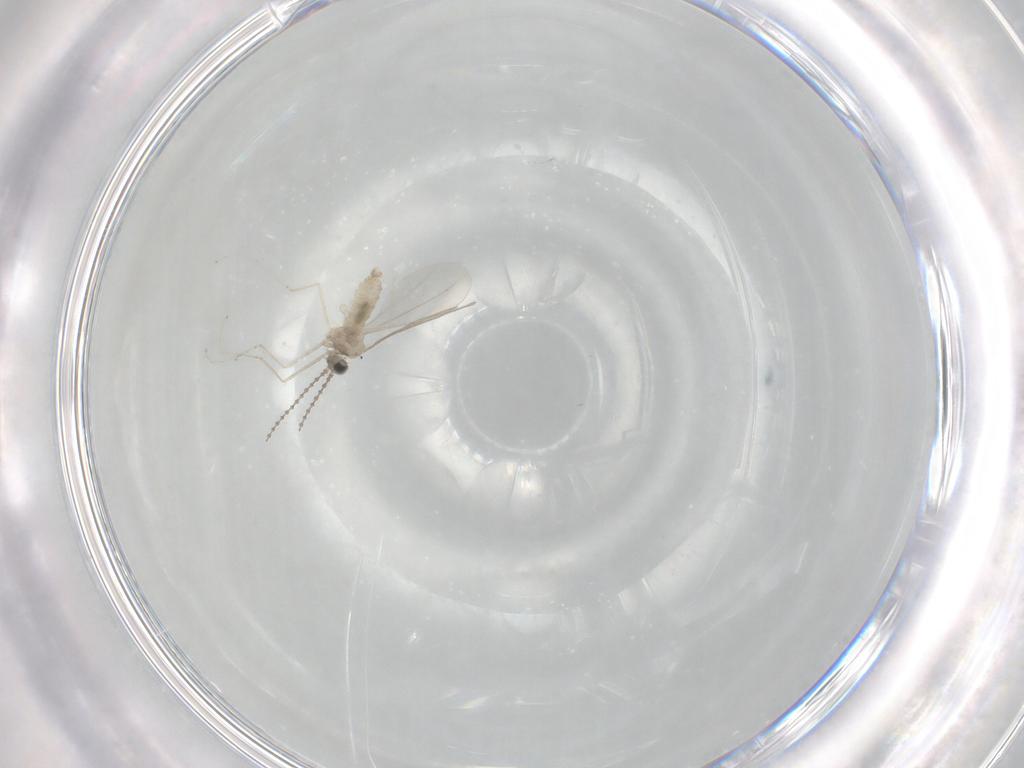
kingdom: Animalia
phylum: Arthropoda
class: Insecta
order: Diptera
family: Cecidomyiidae
